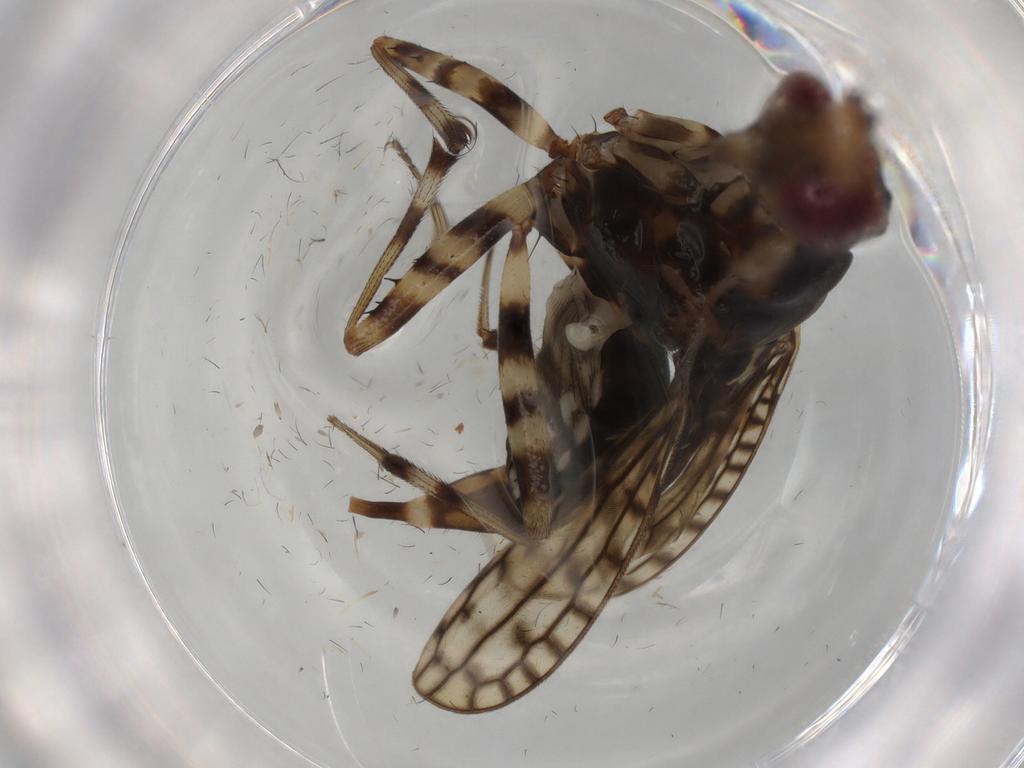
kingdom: Animalia
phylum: Arthropoda
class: Insecta
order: Diptera
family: Neriidae
